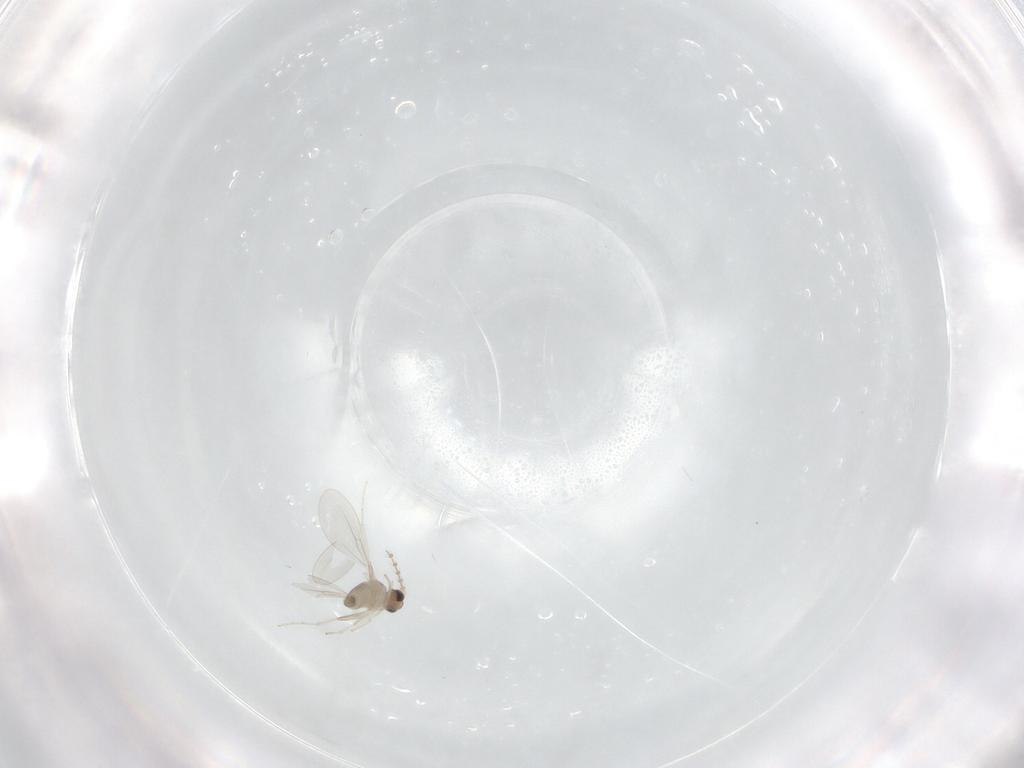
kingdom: Animalia
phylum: Arthropoda
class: Insecta
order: Diptera
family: Cecidomyiidae
